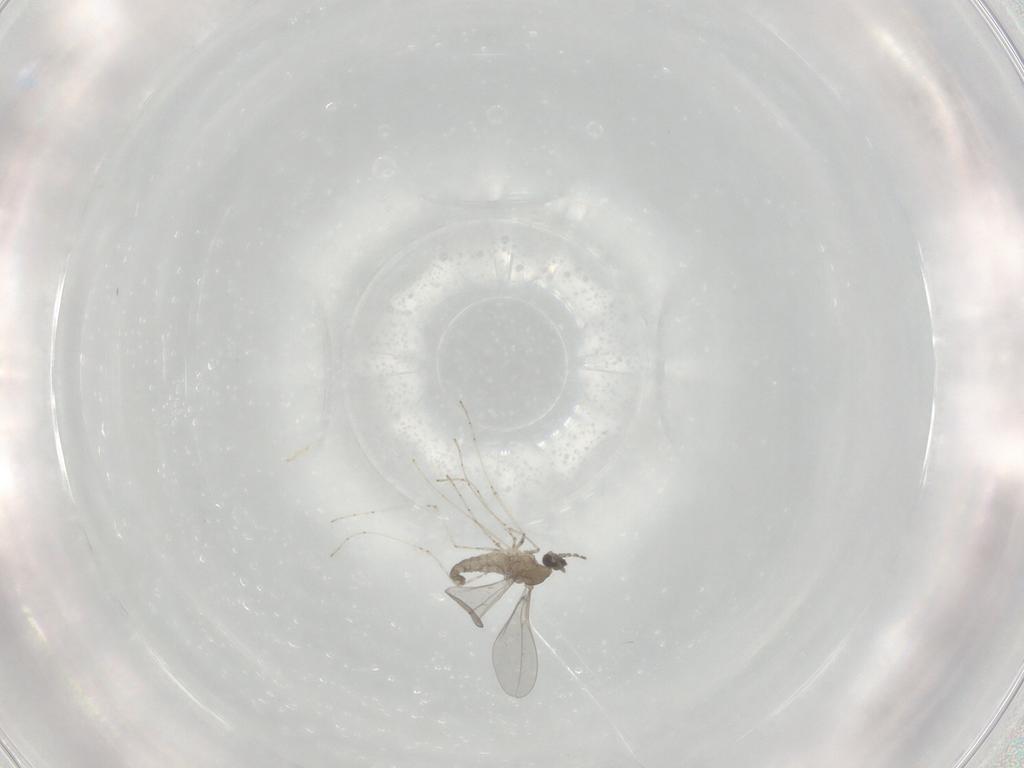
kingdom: Animalia
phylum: Arthropoda
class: Insecta
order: Diptera
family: Cecidomyiidae
